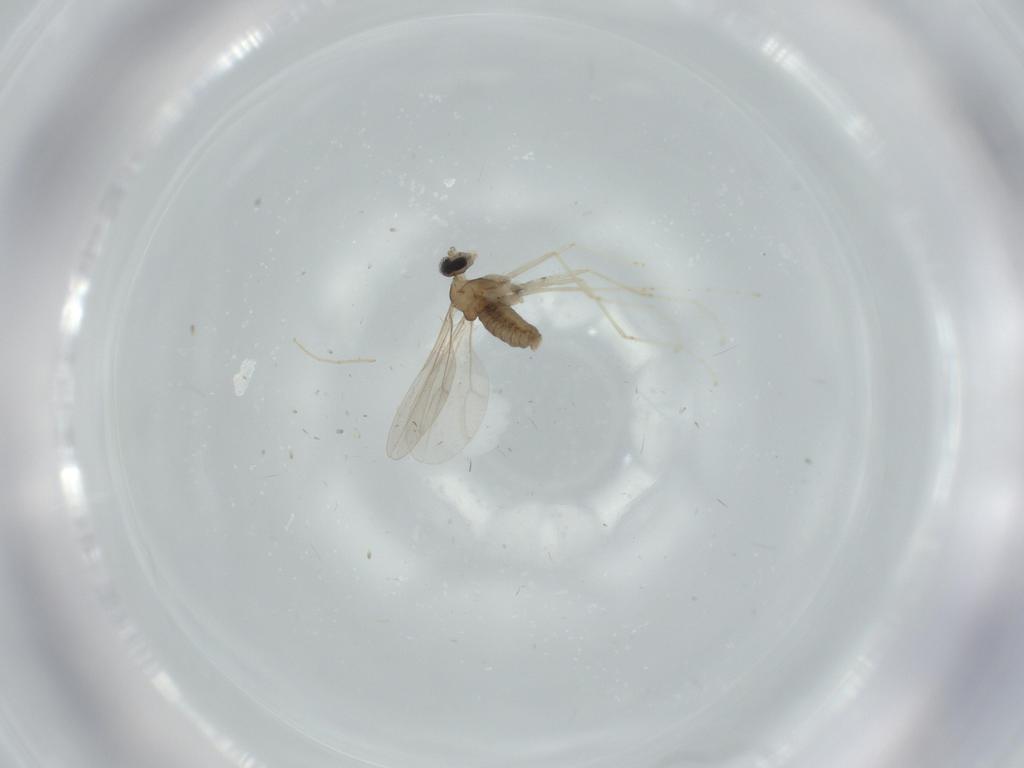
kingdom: Animalia
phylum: Arthropoda
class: Insecta
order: Diptera
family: Cecidomyiidae
